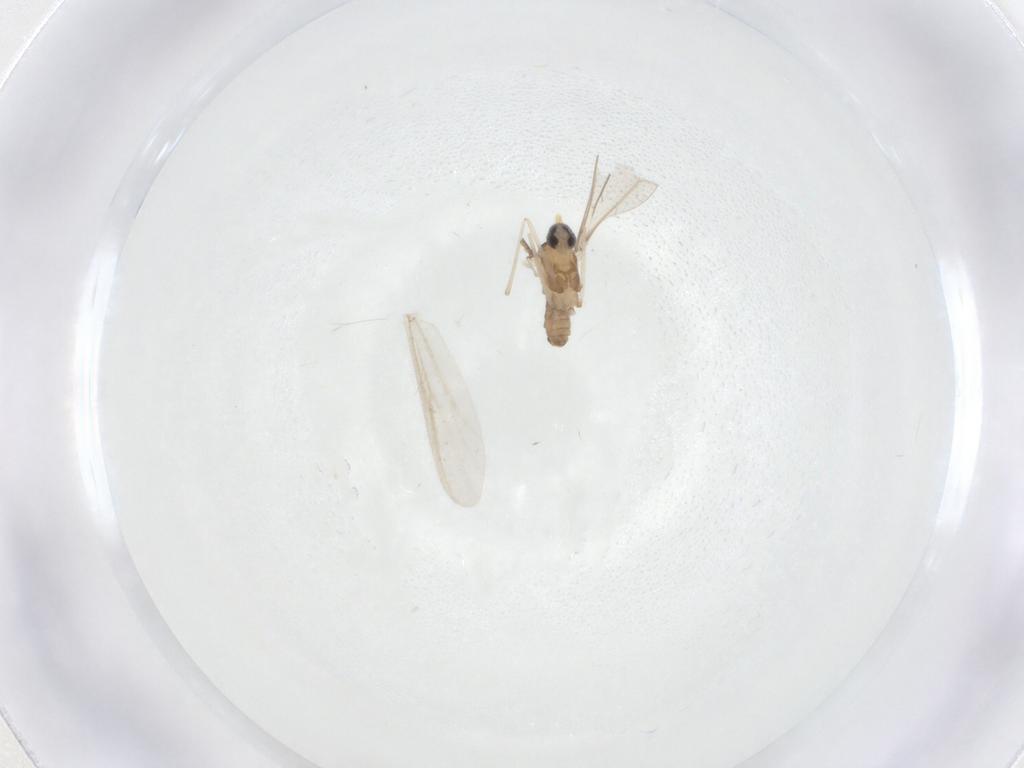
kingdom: Animalia
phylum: Arthropoda
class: Insecta
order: Diptera
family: Cecidomyiidae
